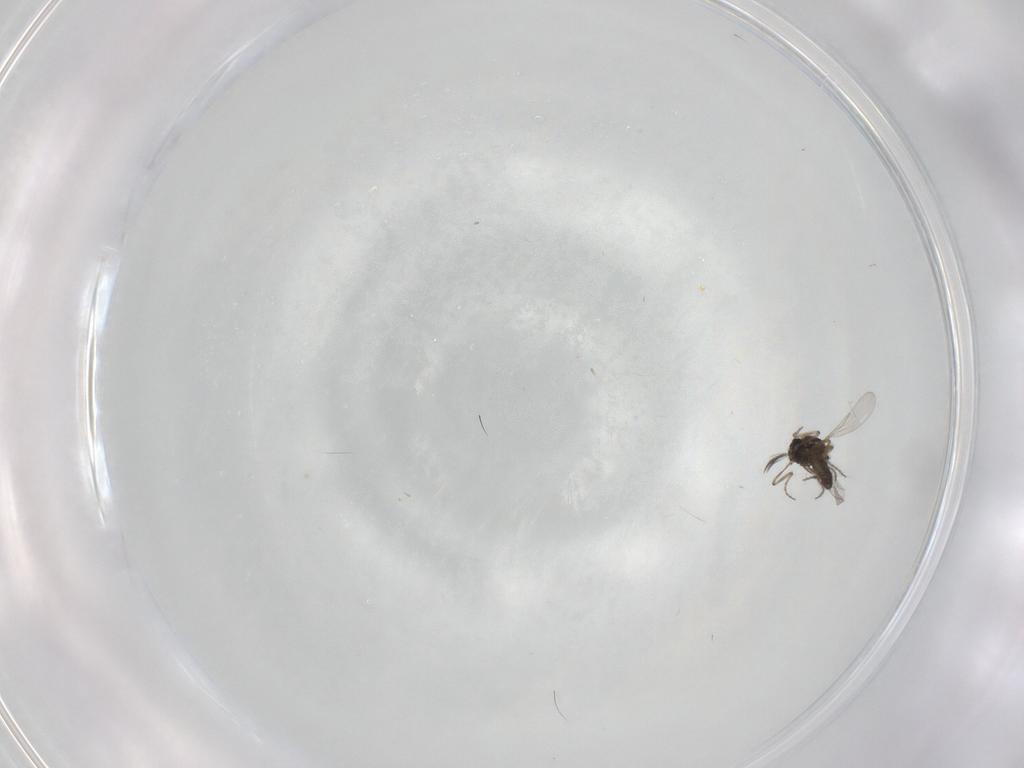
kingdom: Animalia
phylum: Arthropoda
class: Insecta
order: Diptera
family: Ceratopogonidae
